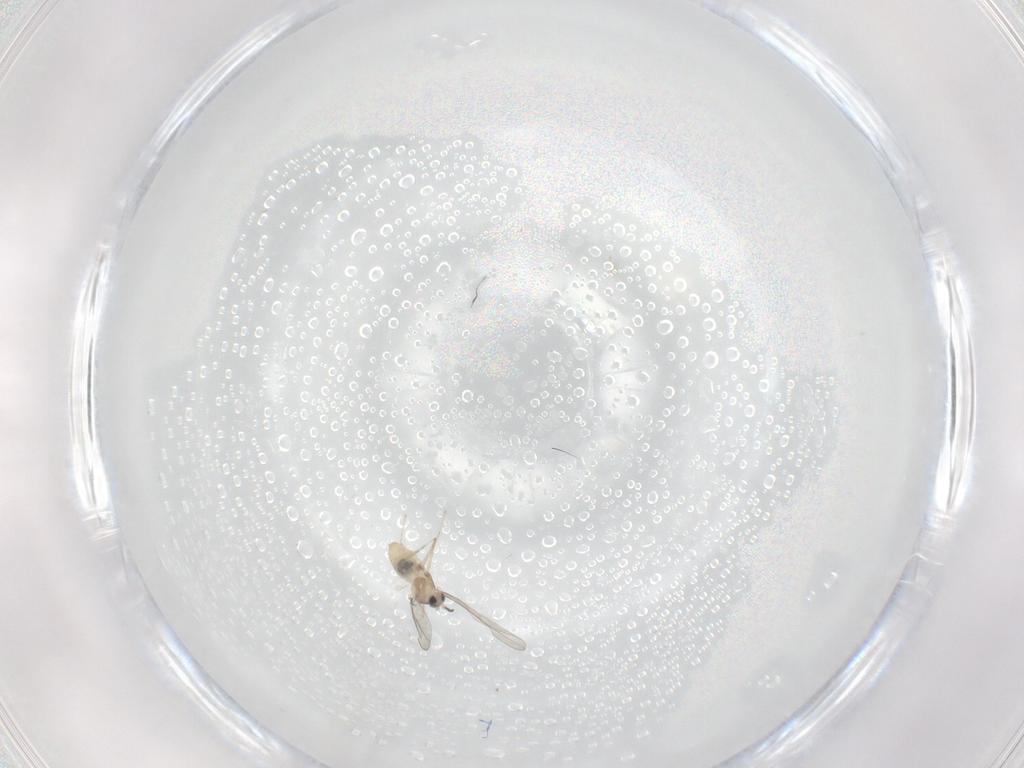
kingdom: Animalia
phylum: Arthropoda
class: Insecta
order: Diptera
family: Cecidomyiidae
